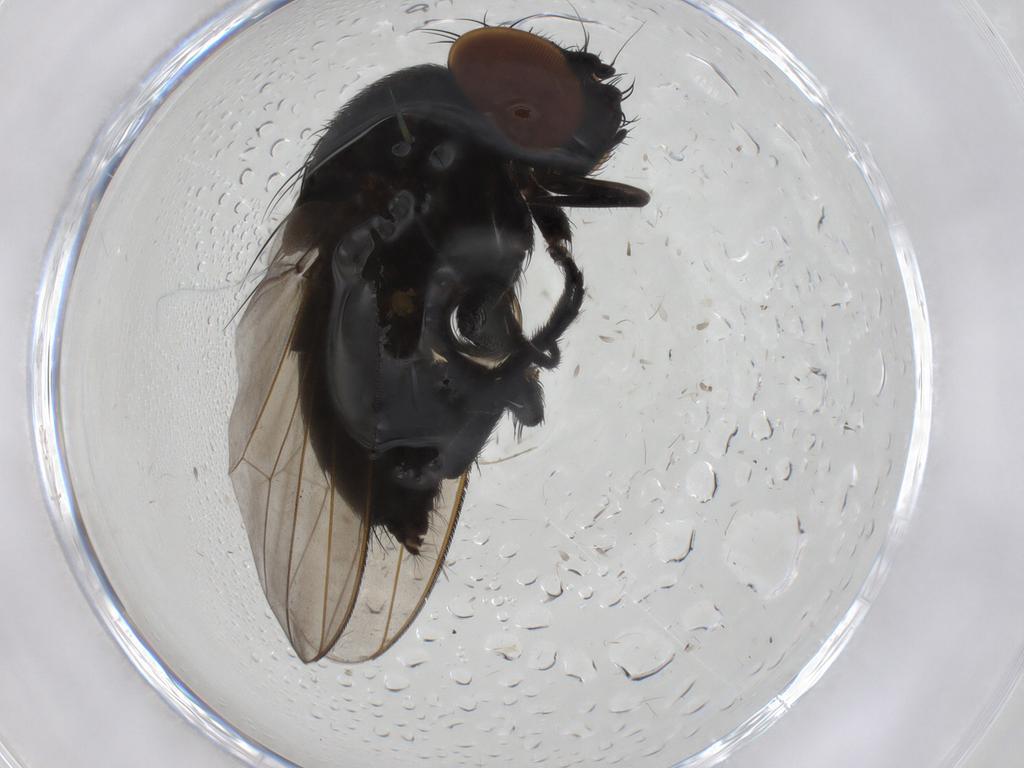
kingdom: Animalia
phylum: Arthropoda
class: Insecta
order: Diptera
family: Milichiidae
